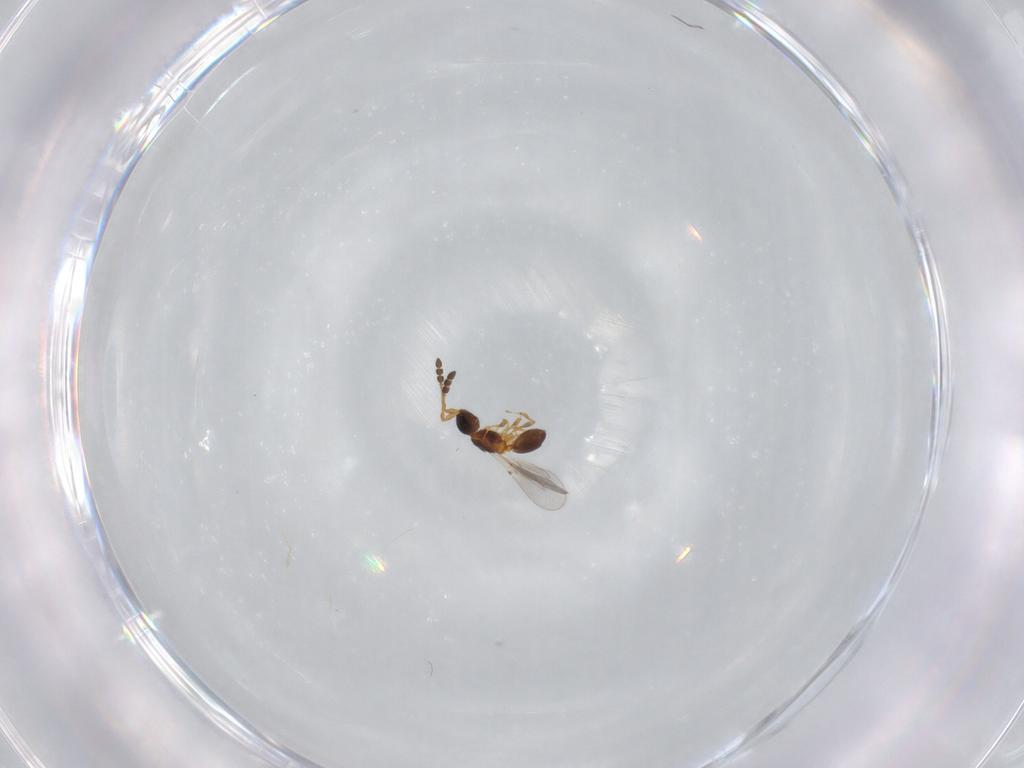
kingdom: Animalia
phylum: Arthropoda
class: Insecta
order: Hymenoptera
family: Diapriidae
